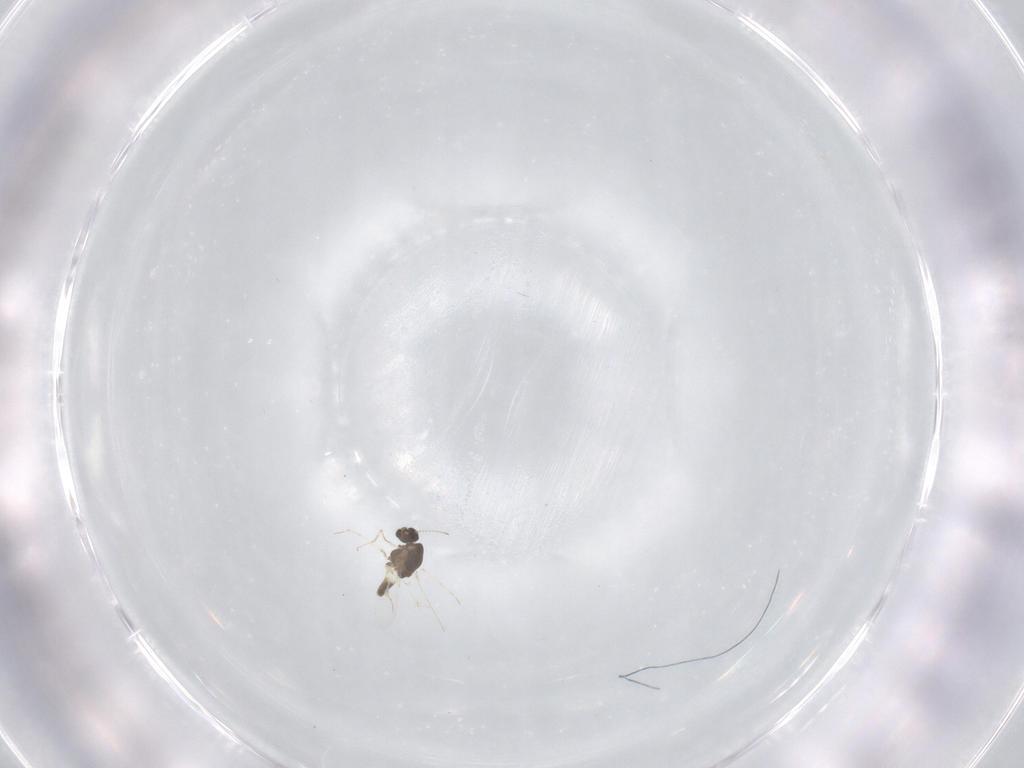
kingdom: Animalia
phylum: Arthropoda
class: Insecta
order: Diptera
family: Chironomidae
